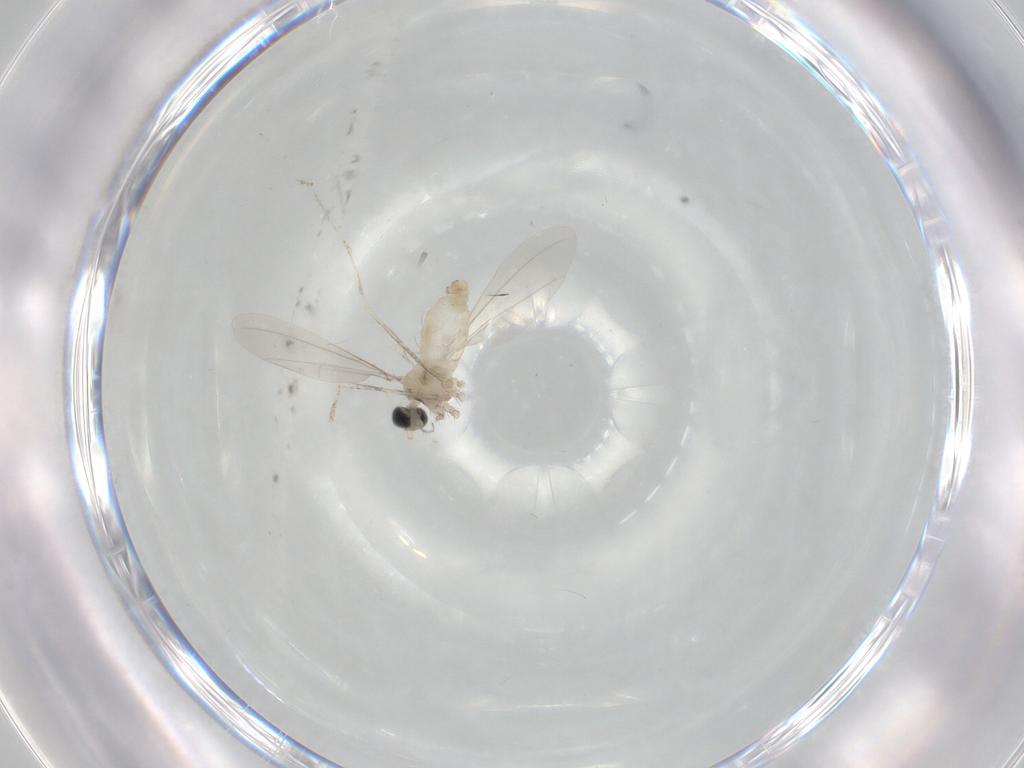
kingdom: Animalia
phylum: Arthropoda
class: Insecta
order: Diptera
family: Cecidomyiidae
